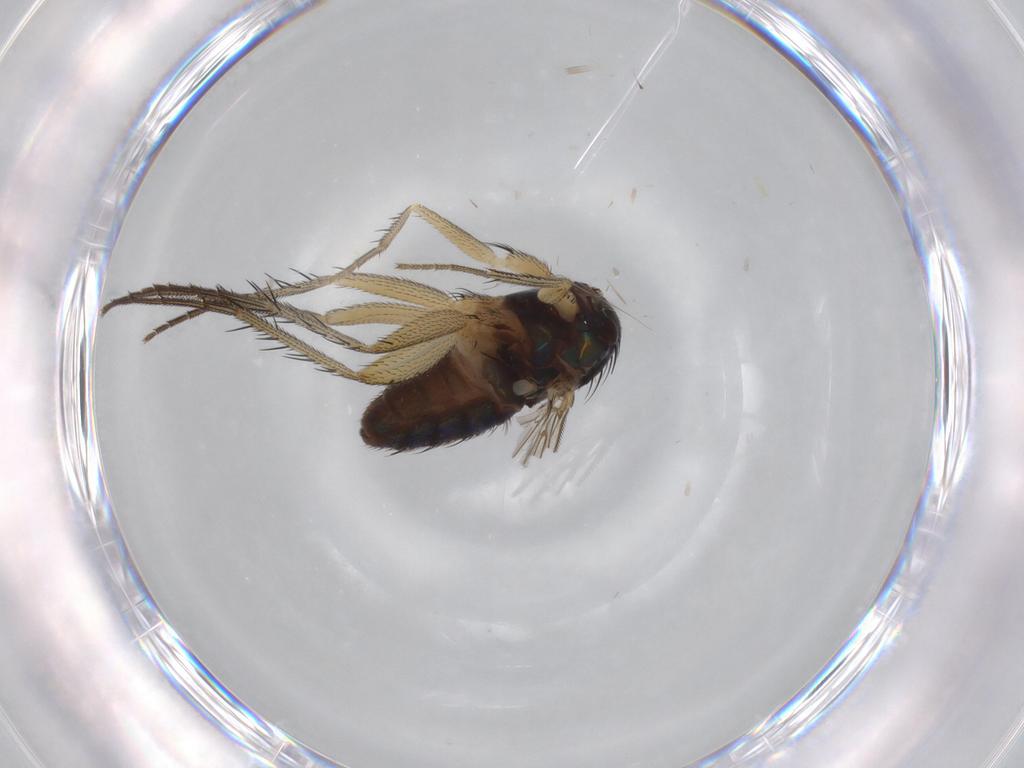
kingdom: Animalia
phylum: Arthropoda
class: Insecta
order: Diptera
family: Dolichopodidae
